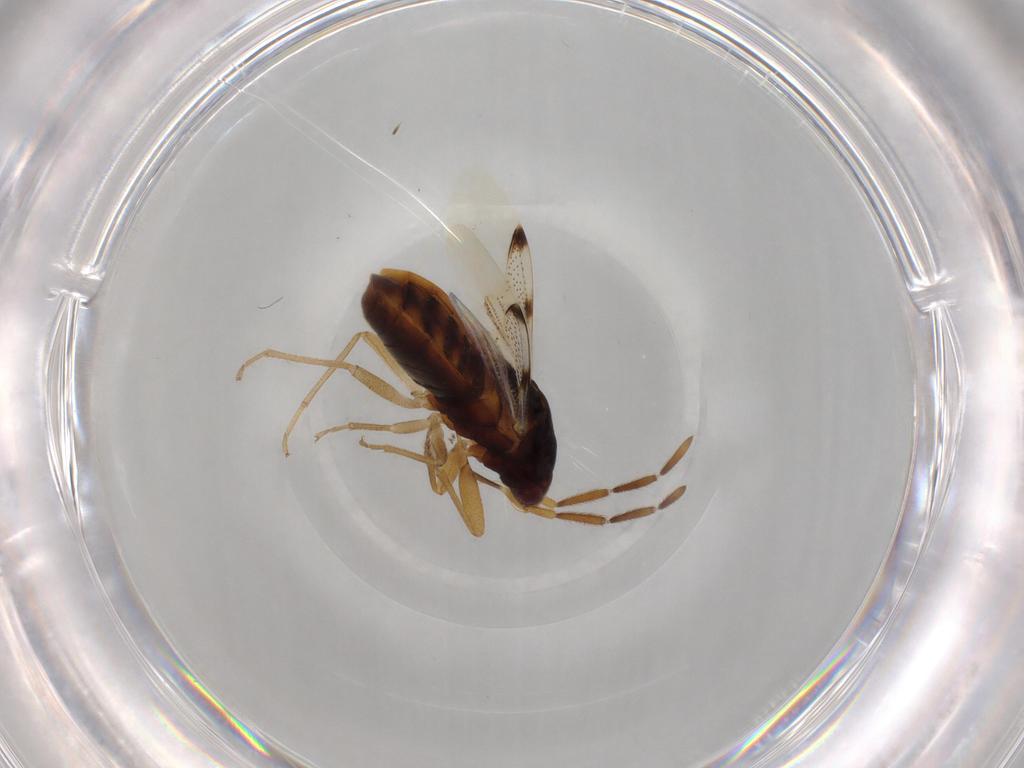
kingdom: Animalia
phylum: Arthropoda
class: Insecta
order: Hemiptera
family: Rhyparochromidae
